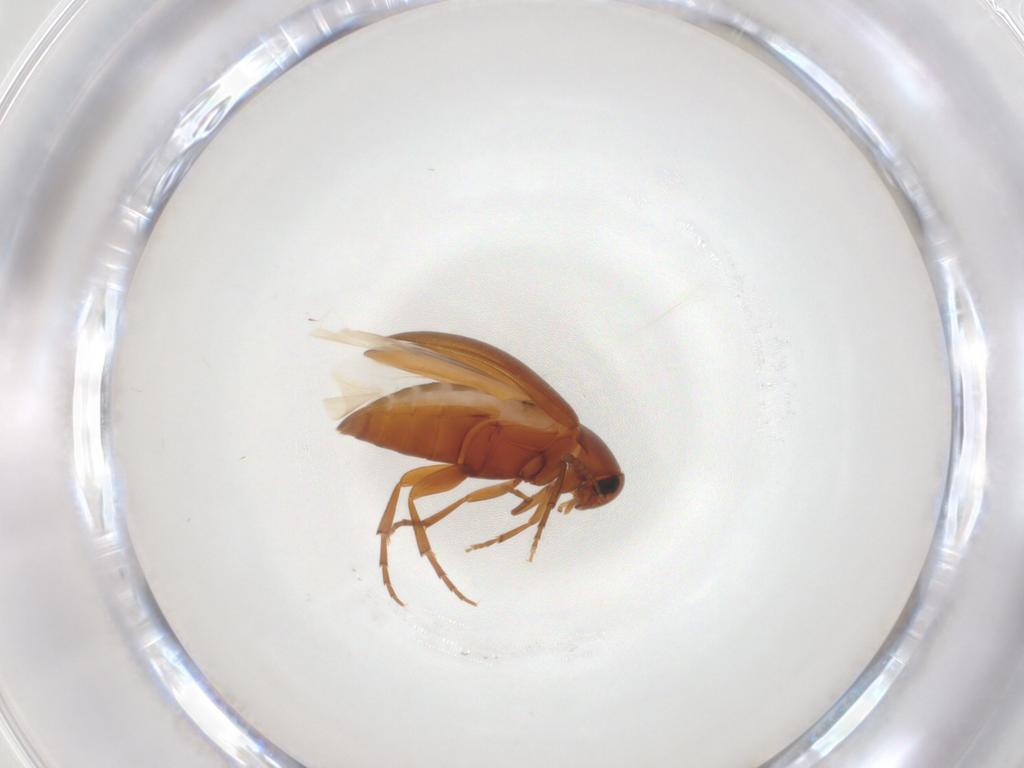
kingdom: Animalia
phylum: Arthropoda
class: Insecta
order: Coleoptera
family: Scraptiidae
